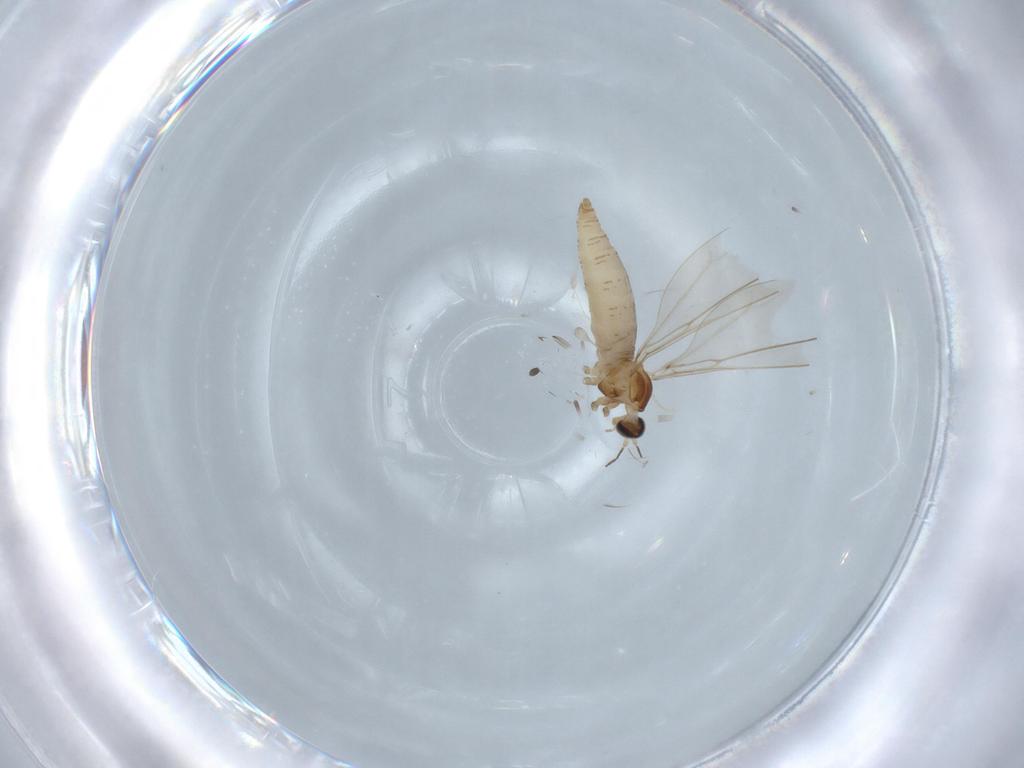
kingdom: Animalia
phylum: Arthropoda
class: Insecta
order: Diptera
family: Cecidomyiidae
